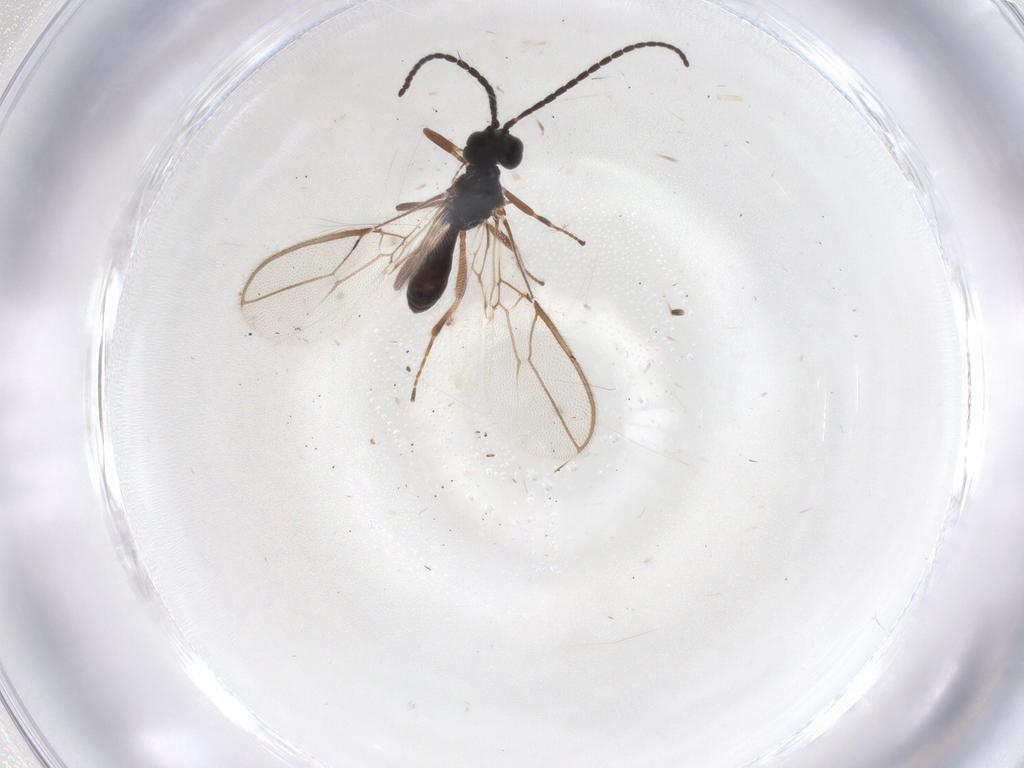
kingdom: Animalia
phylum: Arthropoda
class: Insecta
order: Hymenoptera
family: Braconidae
